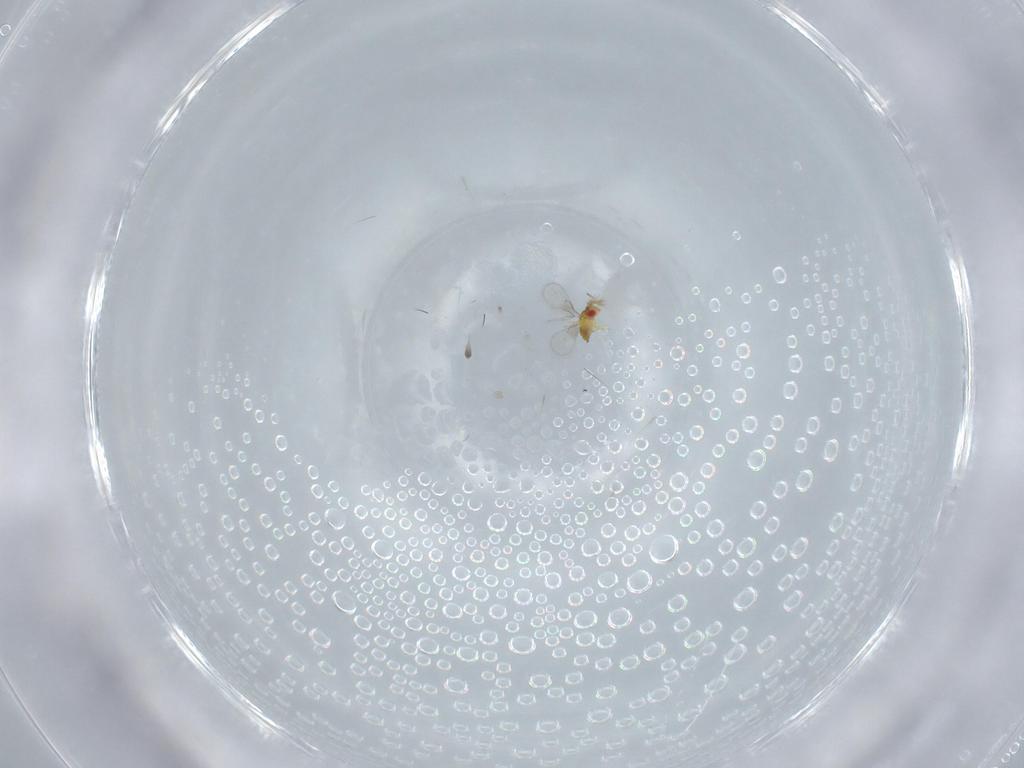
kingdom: Animalia
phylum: Arthropoda
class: Insecta
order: Hymenoptera
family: Trichogrammatidae
